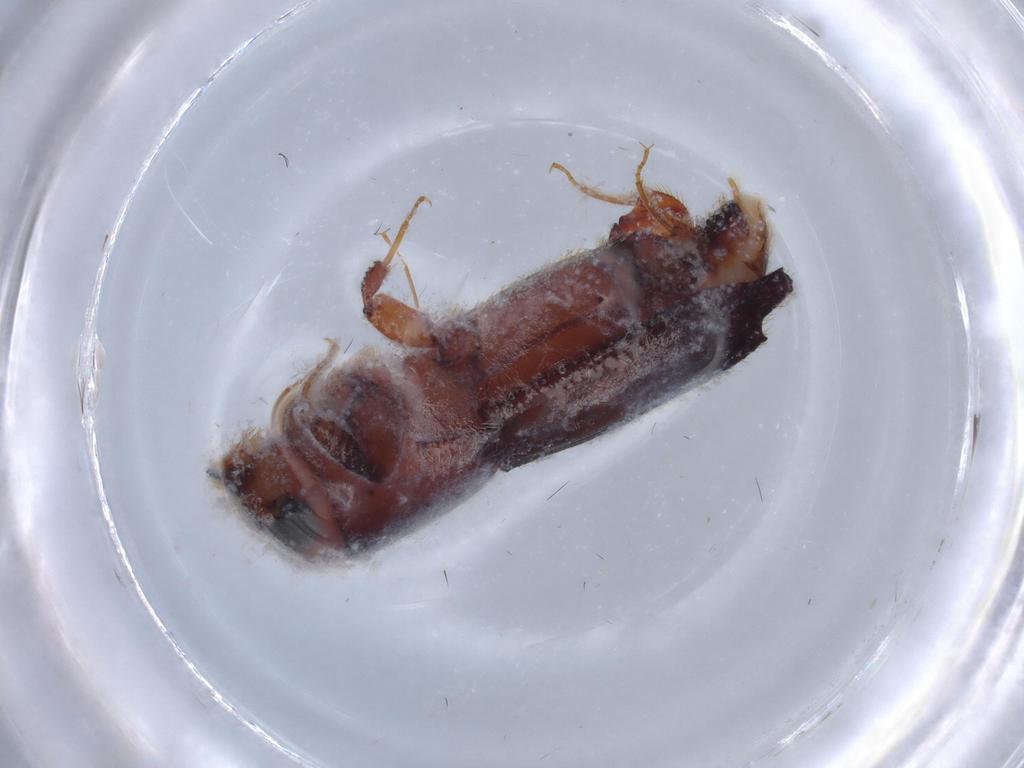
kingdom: Animalia
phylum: Arthropoda
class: Insecta
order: Coleoptera
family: Curculionidae
